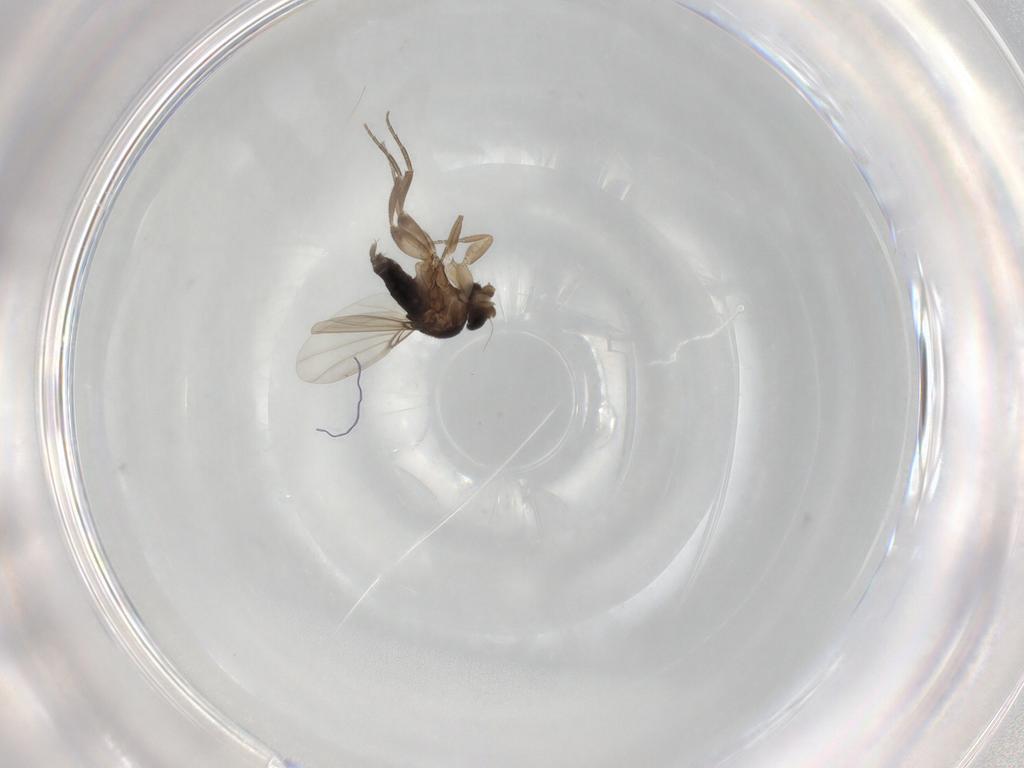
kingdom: Animalia
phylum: Arthropoda
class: Insecta
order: Diptera
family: Phoridae
